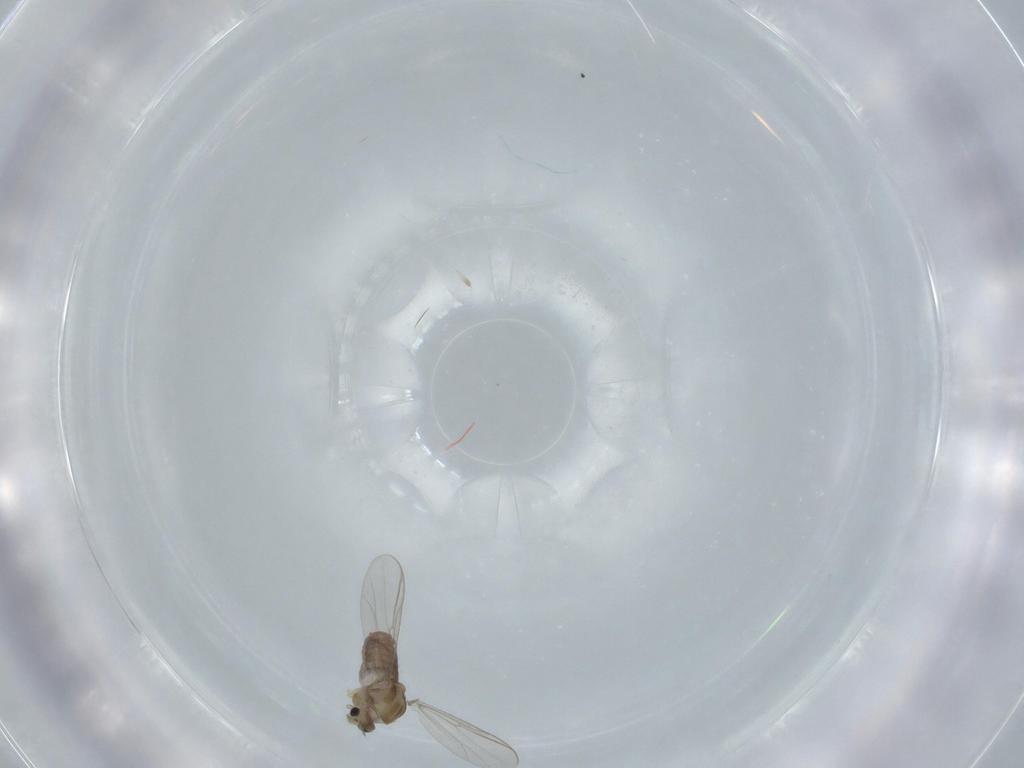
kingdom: Animalia
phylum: Arthropoda
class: Insecta
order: Diptera
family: Chironomidae
